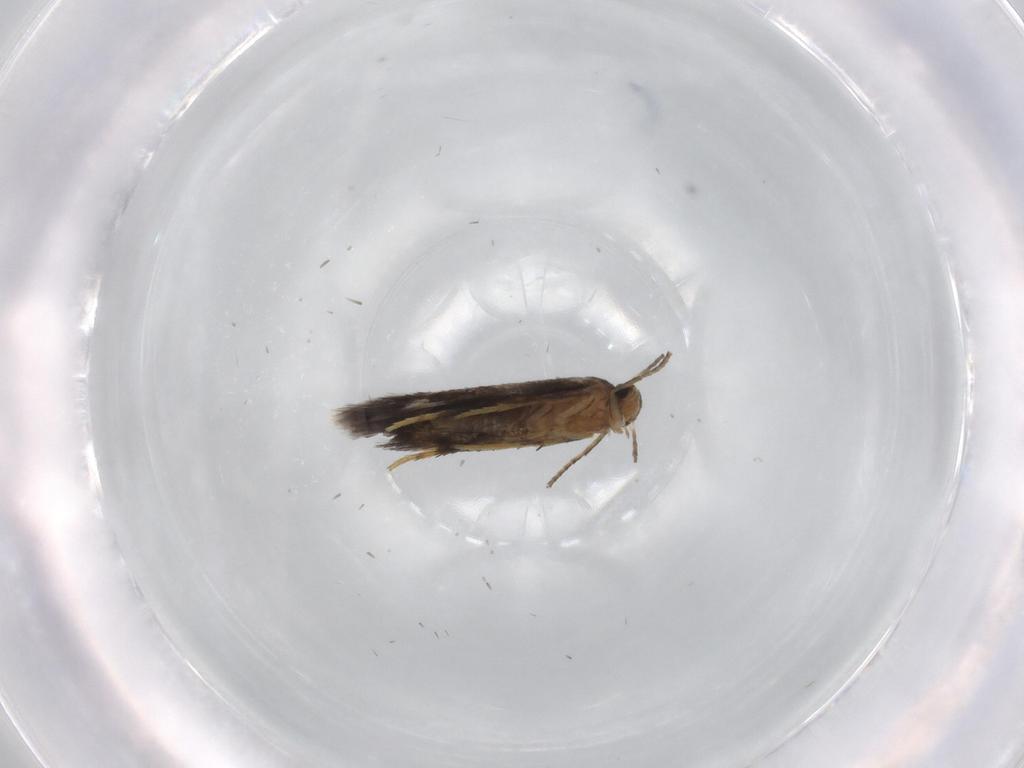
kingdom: Animalia
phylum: Arthropoda
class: Insecta
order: Lepidoptera
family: Heliozelidae
